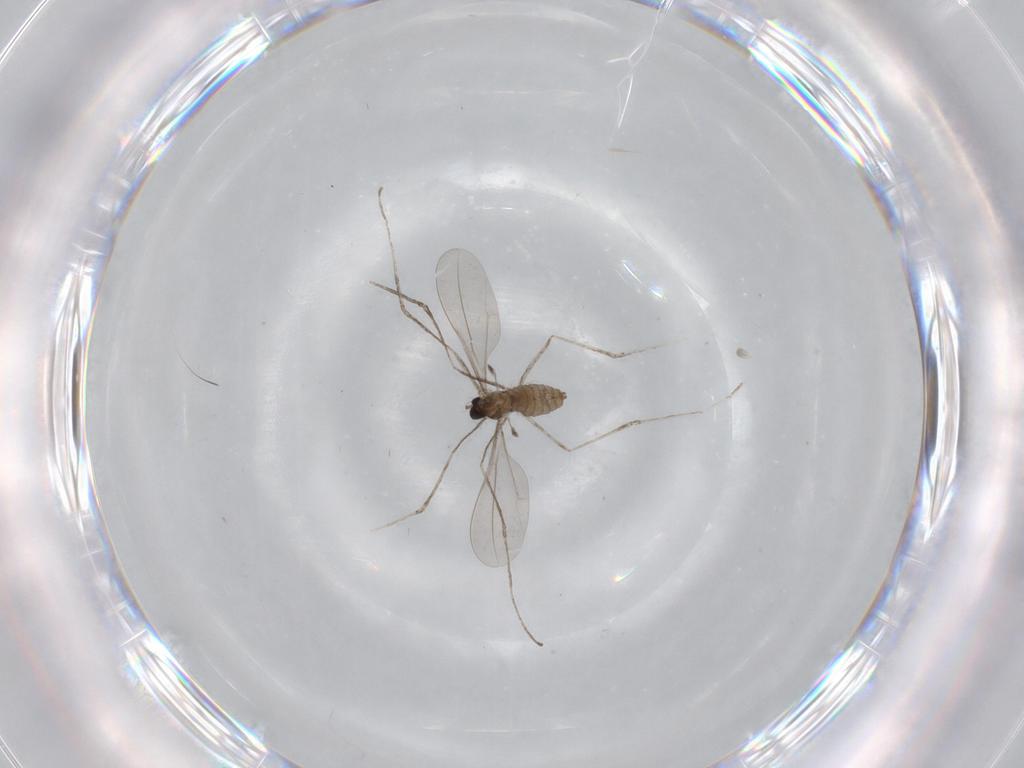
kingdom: Animalia
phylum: Arthropoda
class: Insecta
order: Diptera
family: Cecidomyiidae
